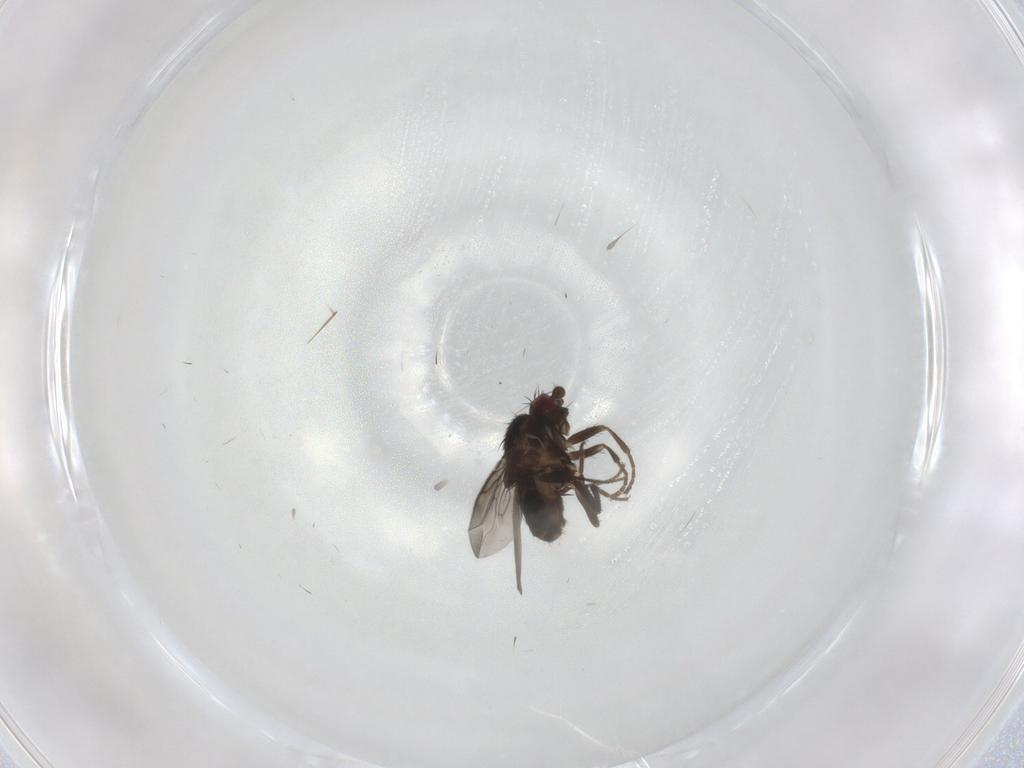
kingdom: Animalia
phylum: Arthropoda
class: Insecta
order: Diptera
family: Sphaeroceridae
